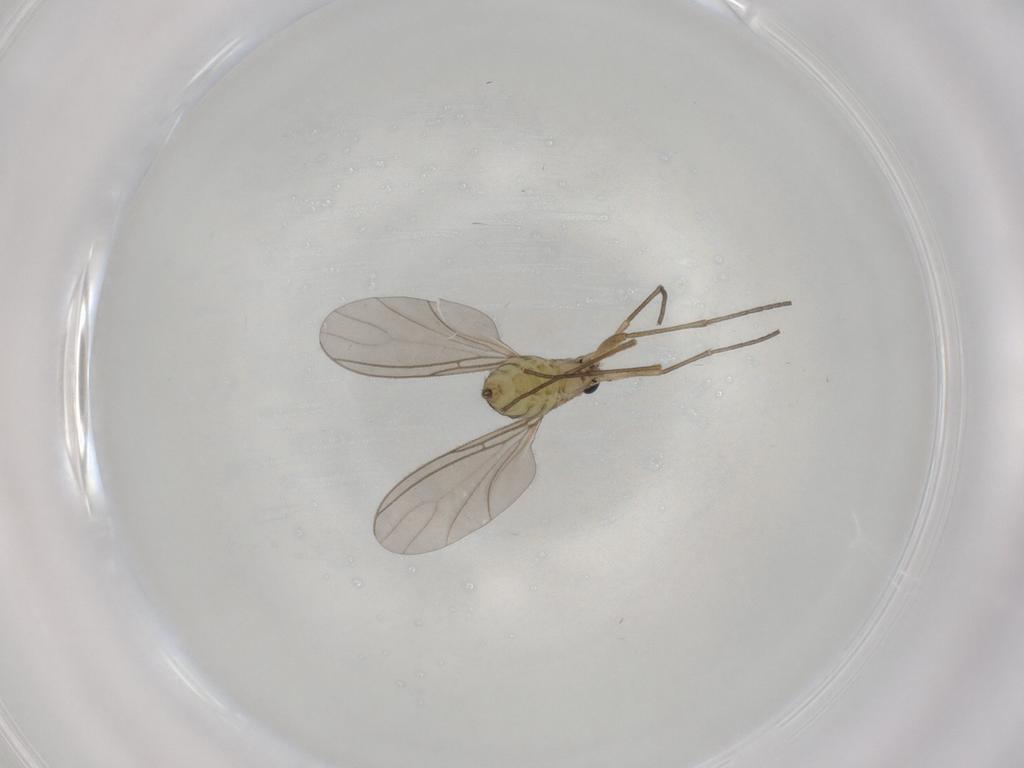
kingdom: Animalia
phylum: Arthropoda
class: Insecta
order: Diptera
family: Sciaridae
